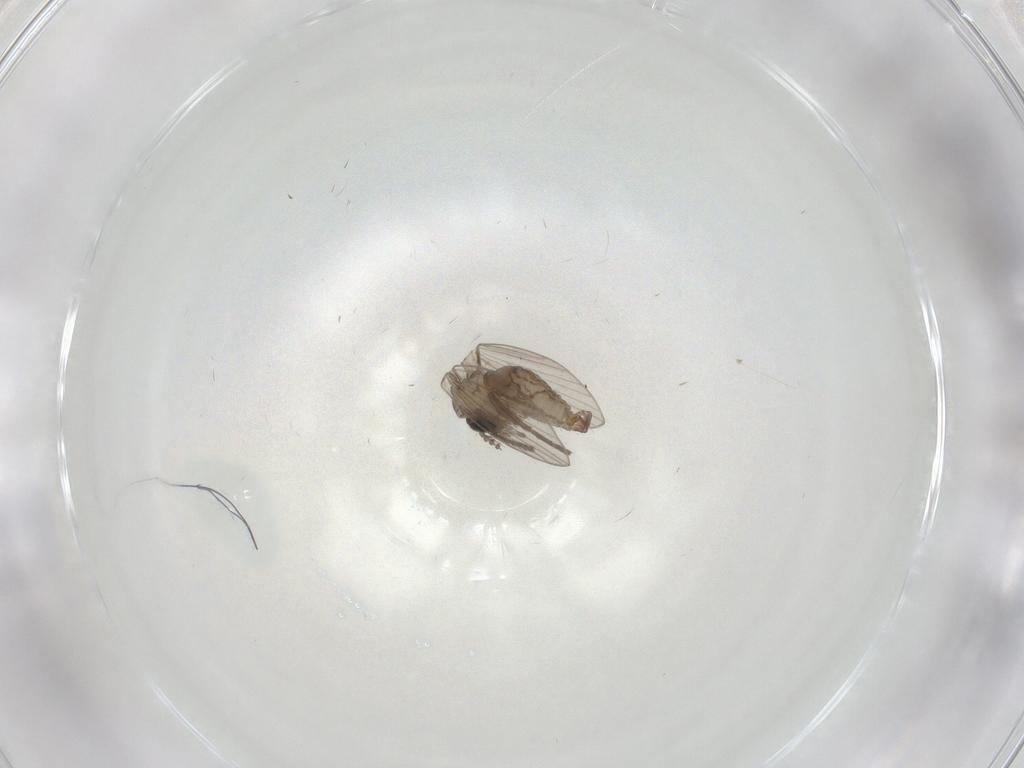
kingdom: Animalia
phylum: Arthropoda
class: Insecta
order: Diptera
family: Psychodidae
